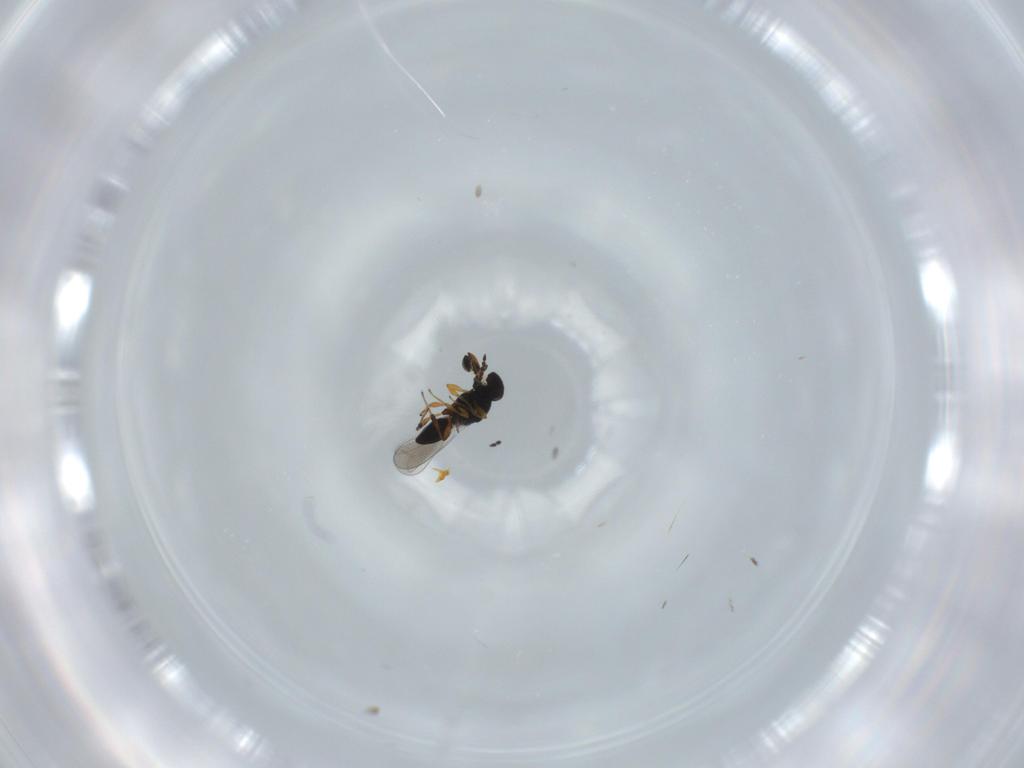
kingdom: Animalia
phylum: Arthropoda
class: Insecta
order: Hymenoptera
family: Platygastridae
